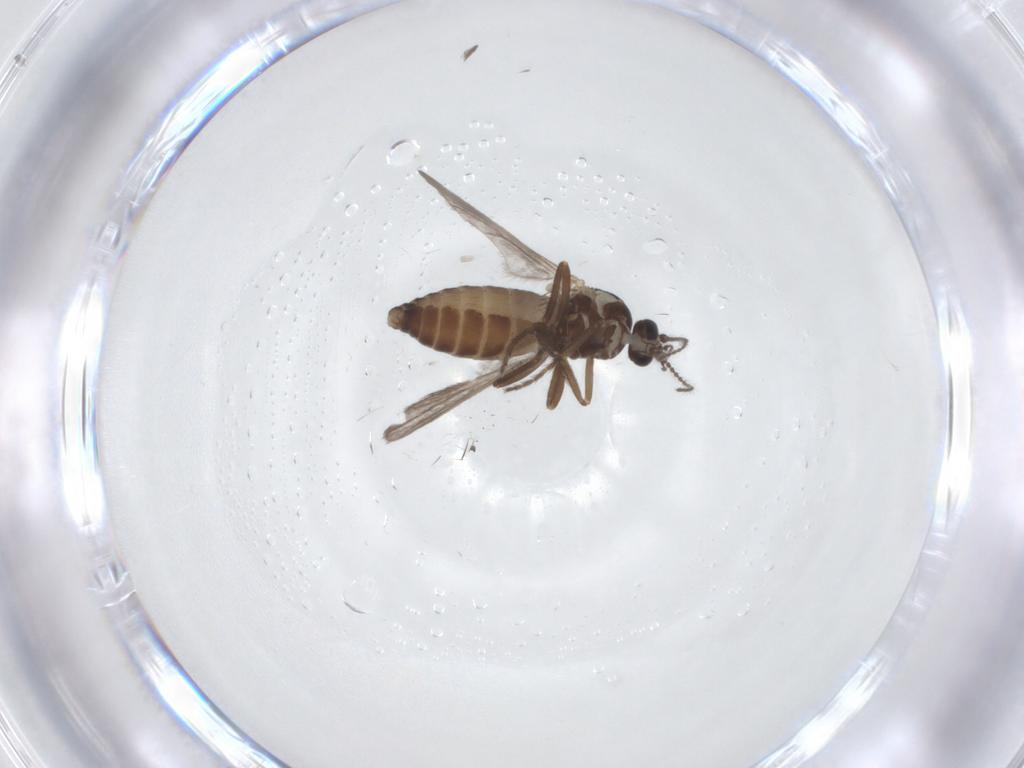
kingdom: Animalia
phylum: Arthropoda
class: Insecta
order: Diptera
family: Ceratopogonidae
